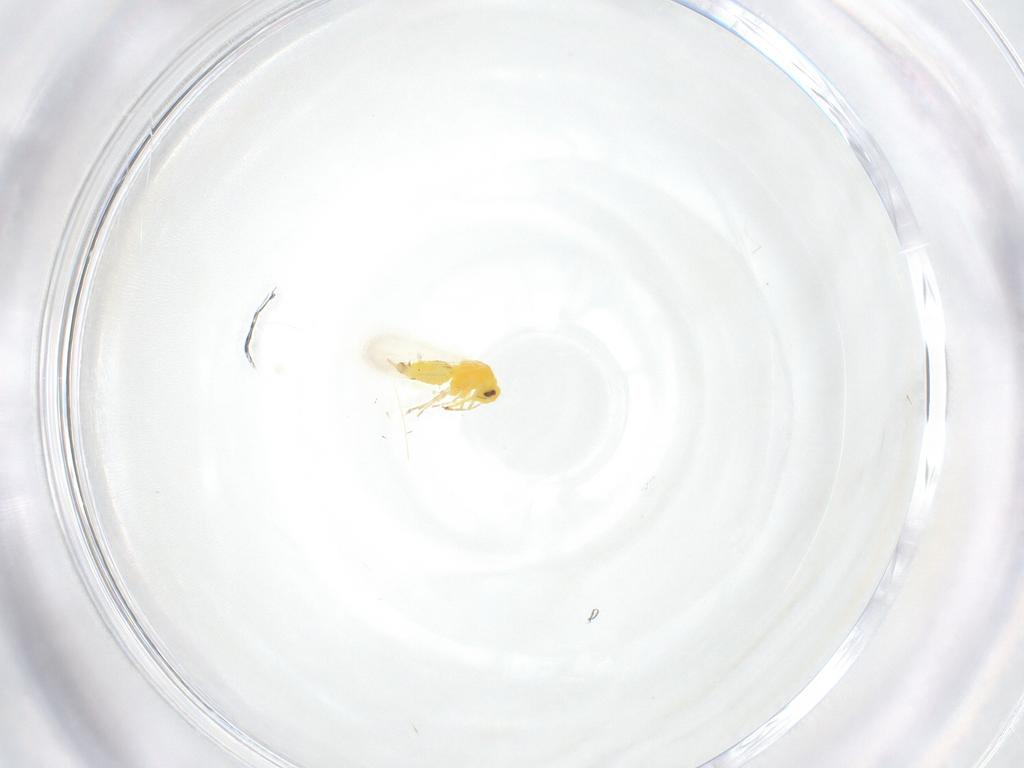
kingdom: Animalia
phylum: Arthropoda
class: Insecta
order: Hemiptera
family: Aleyrodidae
